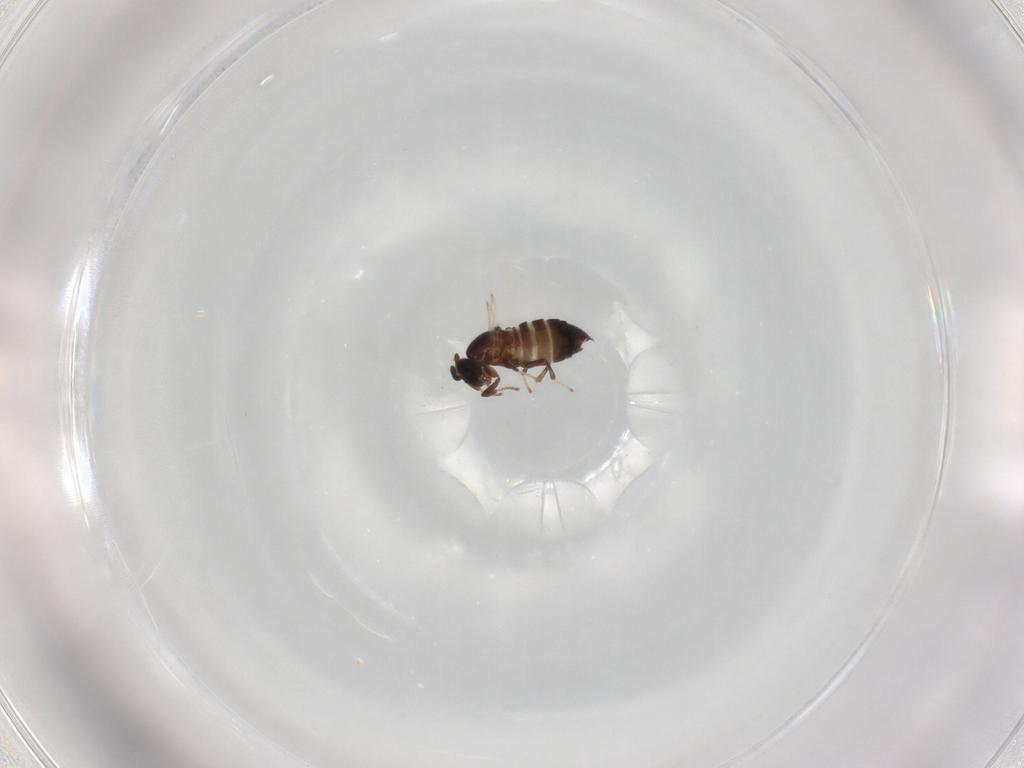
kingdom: Animalia
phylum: Arthropoda
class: Insecta
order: Diptera
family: Scatopsidae
